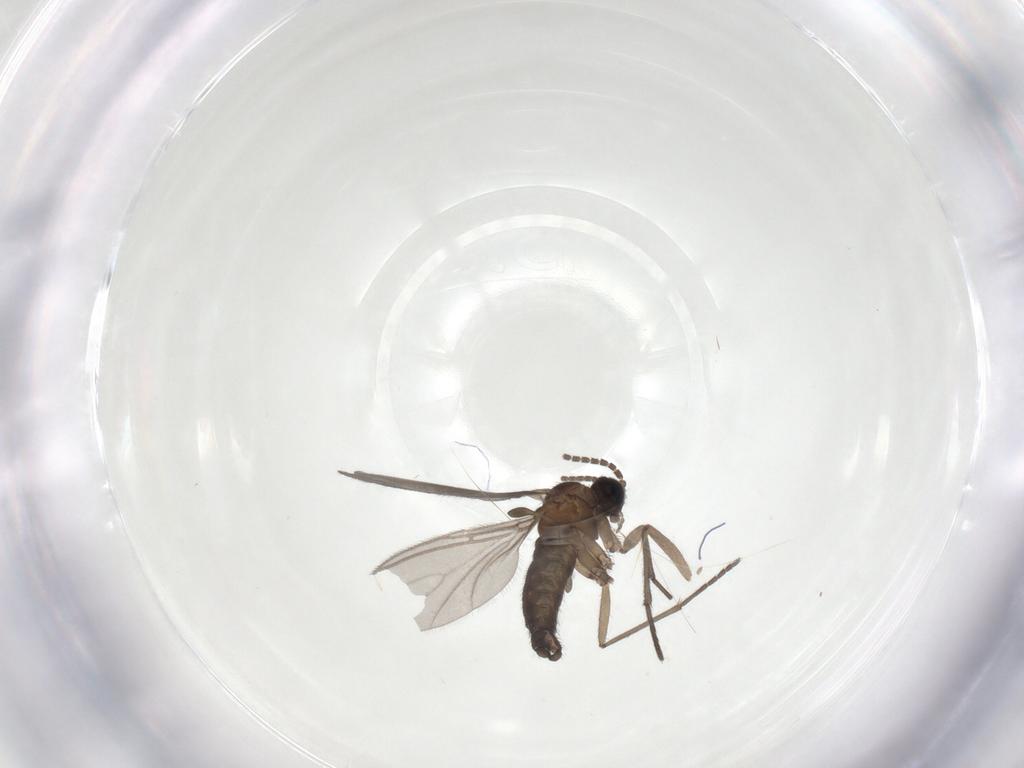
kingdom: Animalia
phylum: Arthropoda
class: Insecta
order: Diptera
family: Sciaridae
